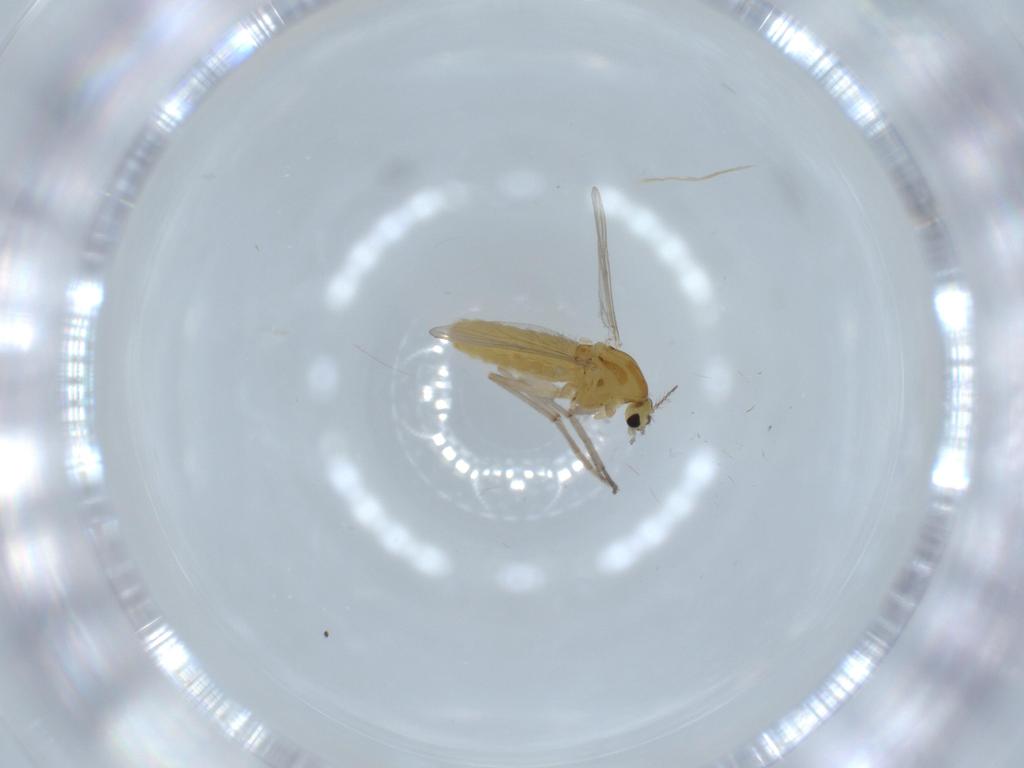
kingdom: Animalia
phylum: Arthropoda
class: Insecta
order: Diptera
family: Chironomidae
